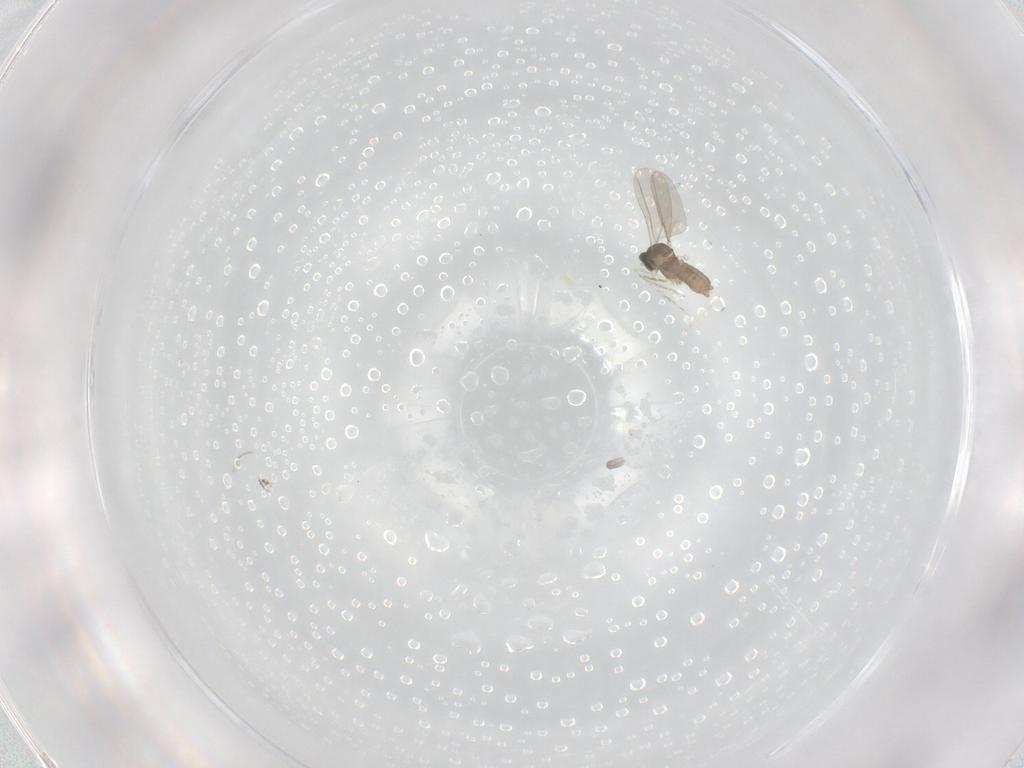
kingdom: Animalia
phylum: Arthropoda
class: Insecta
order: Diptera
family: Cecidomyiidae
